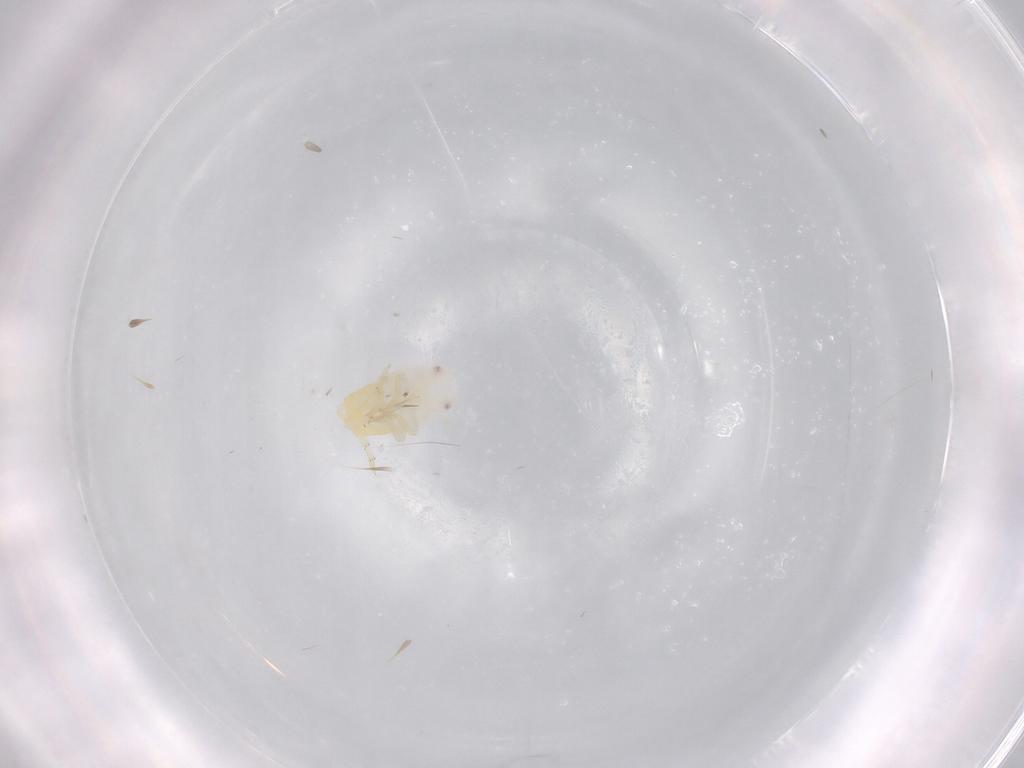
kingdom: Animalia
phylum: Arthropoda
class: Insecta
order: Hemiptera
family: Flatidae
